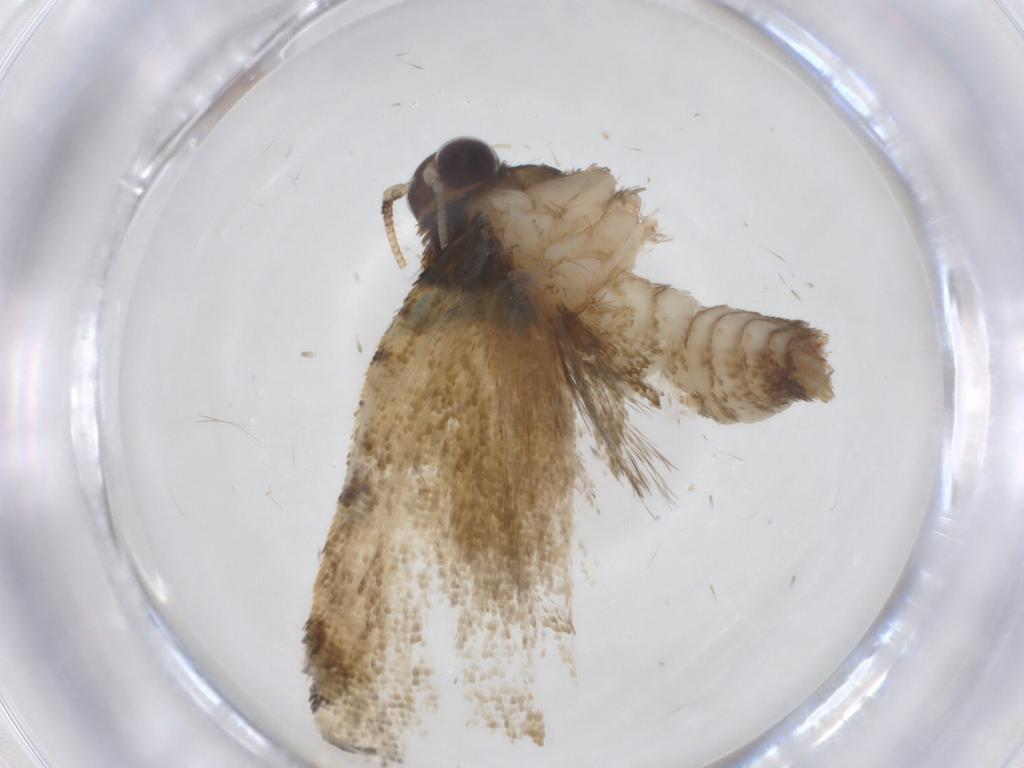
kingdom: Animalia
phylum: Arthropoda
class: Insecta
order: Lepidoptera
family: Tortricidae
